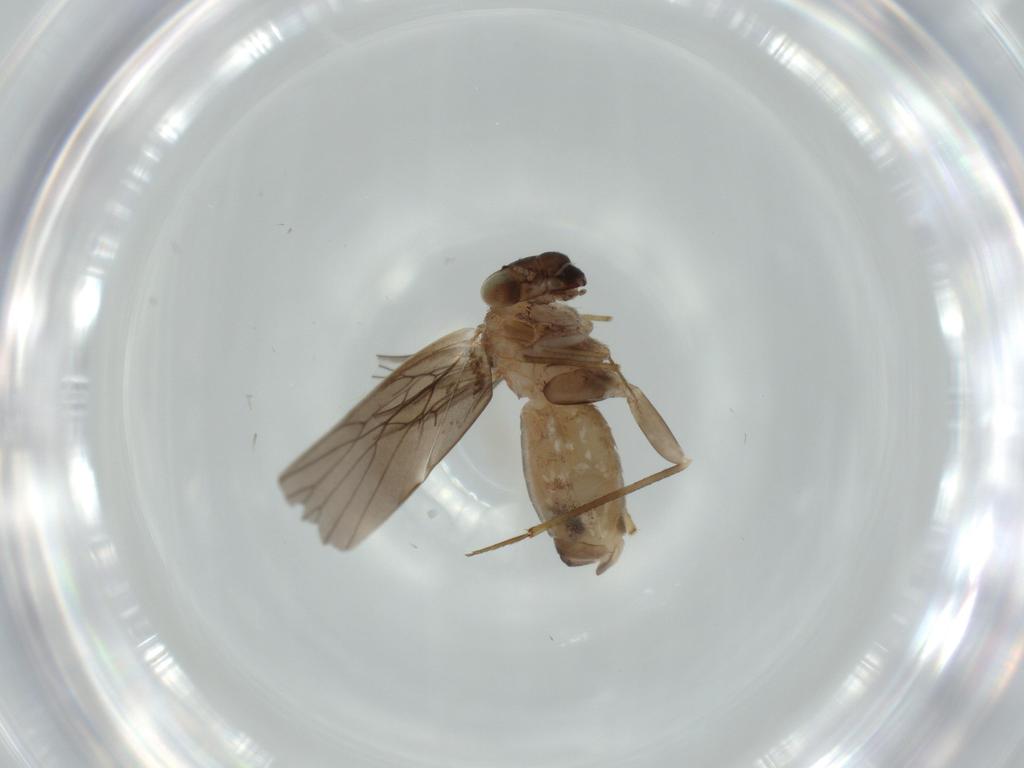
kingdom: Animalia
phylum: Arthropoda
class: Insecta
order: Psocodea
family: Lepidopsocidae
